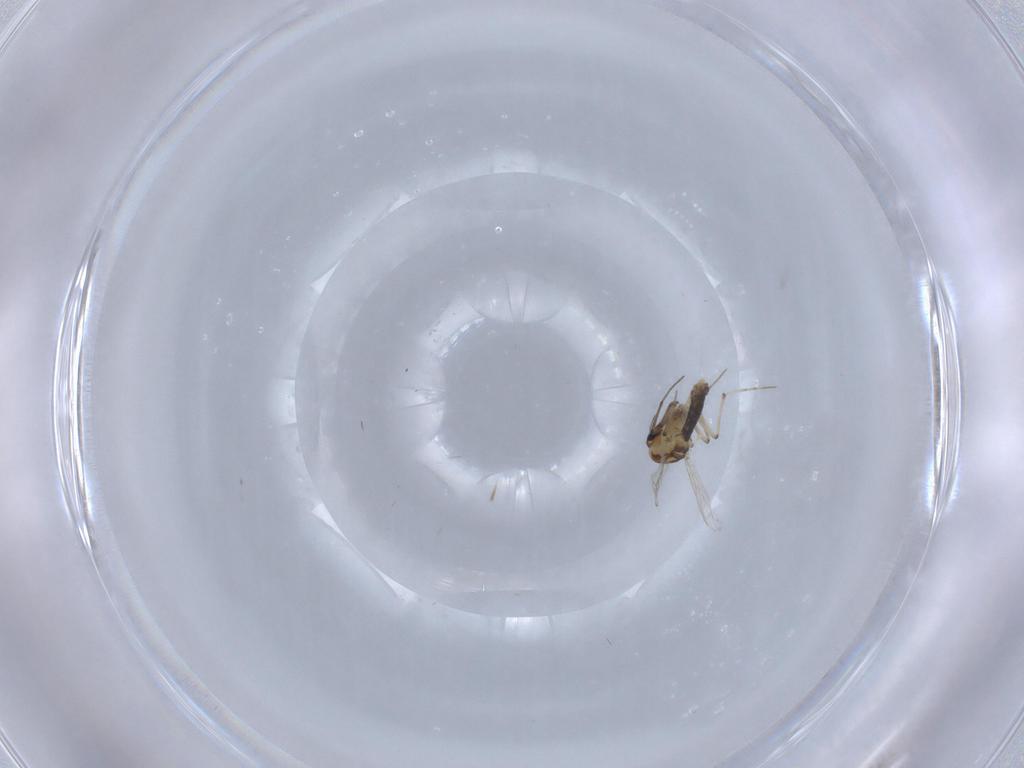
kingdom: Animalia
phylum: Arthropoda
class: Insecta
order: Diptera
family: Chironomidae
